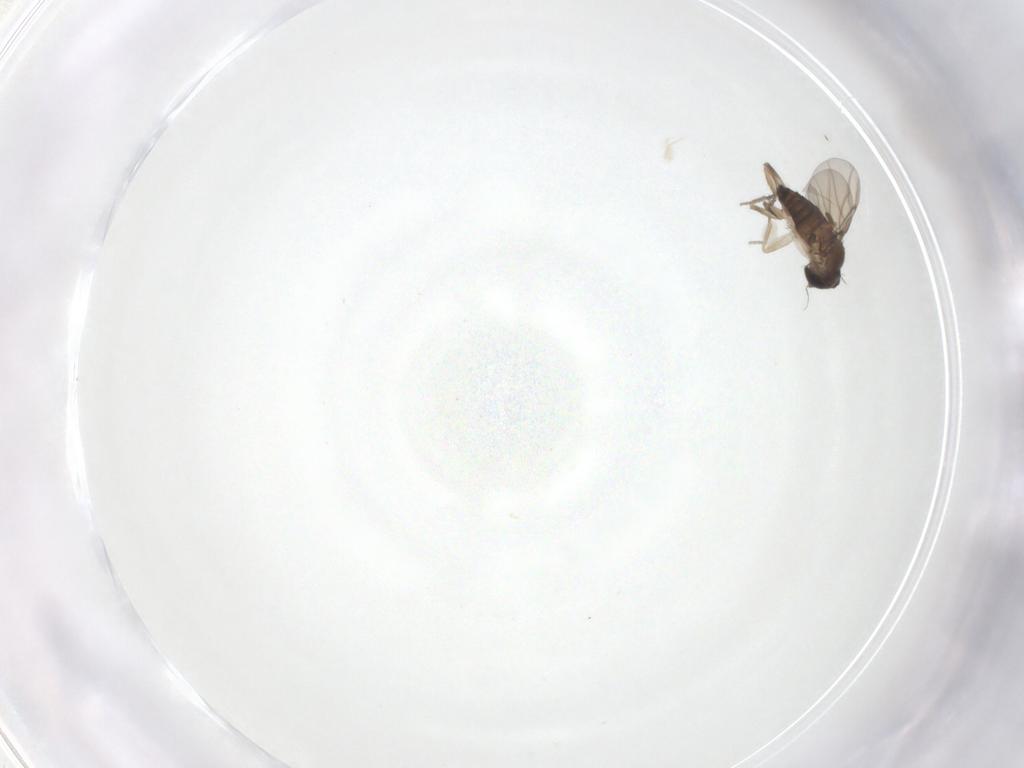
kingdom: Animalia
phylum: Arthropoda
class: Insecta
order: Diptera
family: Phoridae
